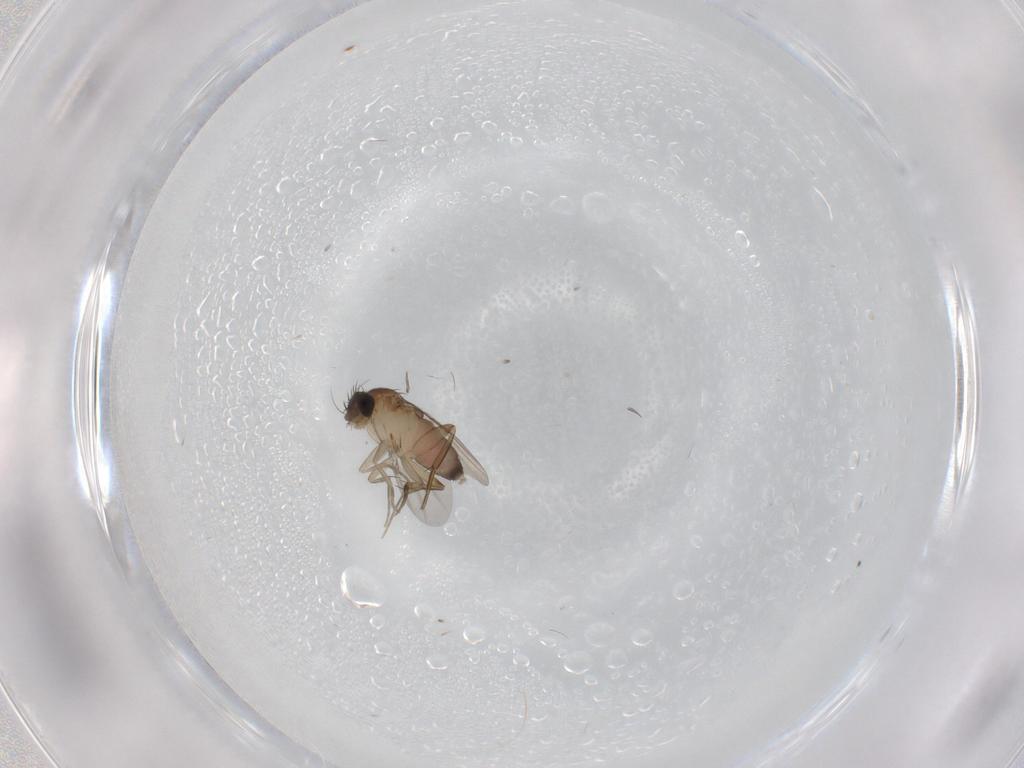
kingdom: Animalia
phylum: Arthropoda
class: Insecta
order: Diptera
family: Phoridae
